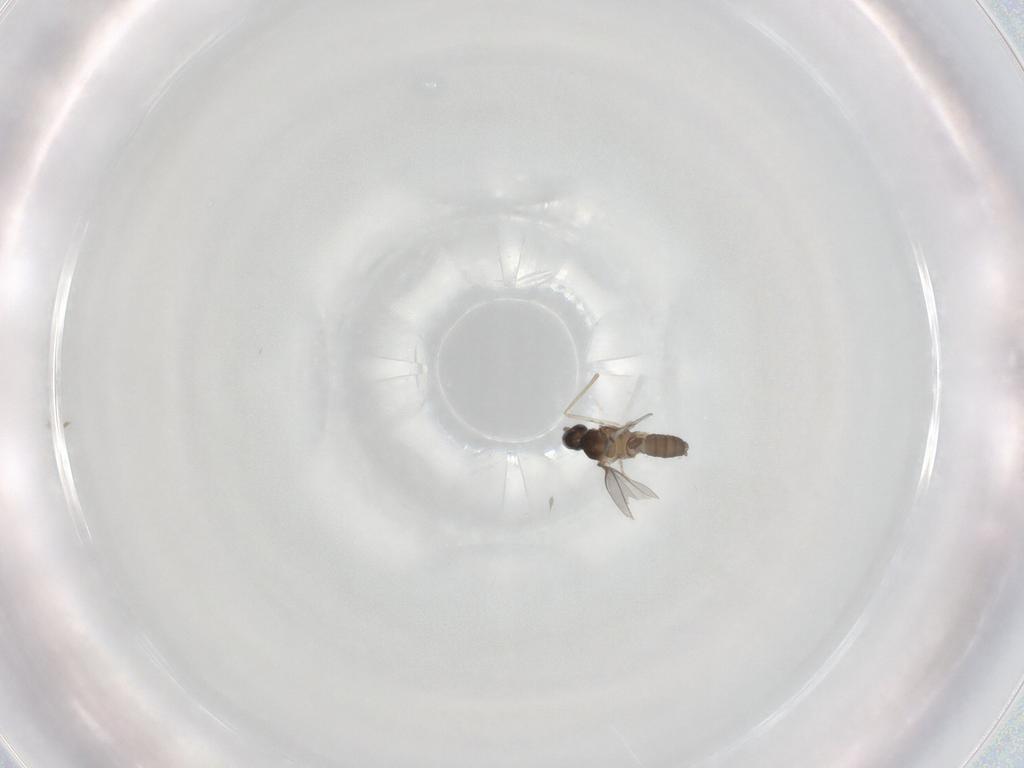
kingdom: Animalia
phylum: Arthropoda
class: Insecta
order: Diptera
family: Cecidomyiidae
